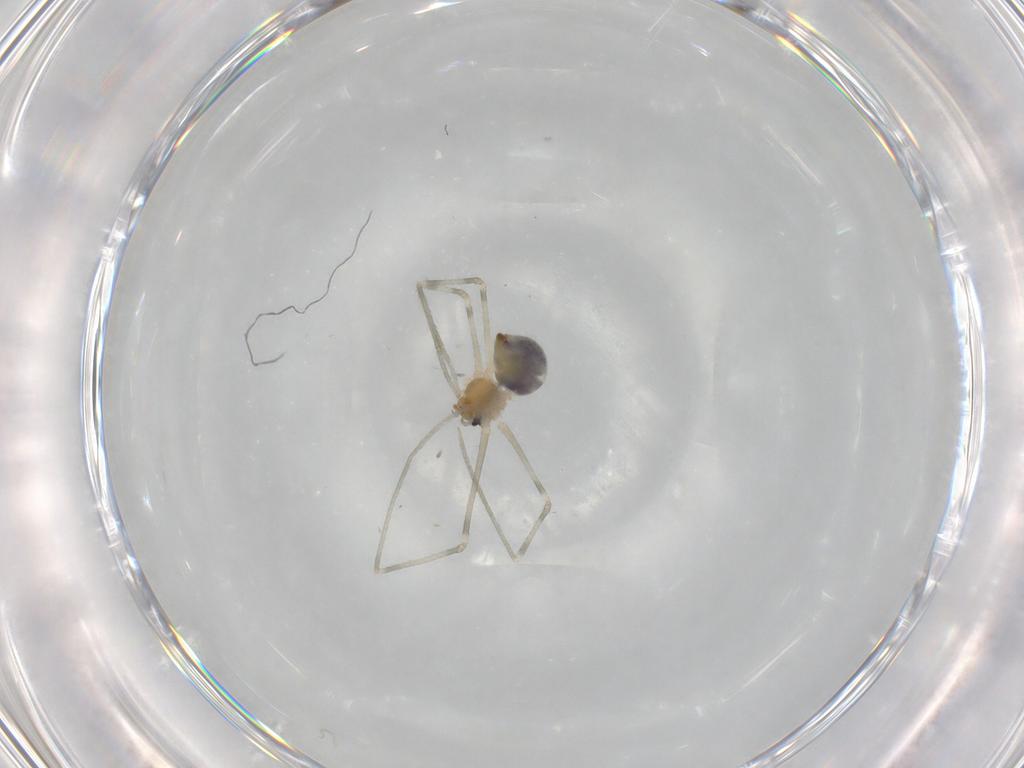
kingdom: Animalia
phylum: Arthropoda
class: Arachnida
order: Araneae
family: Pholcidae
